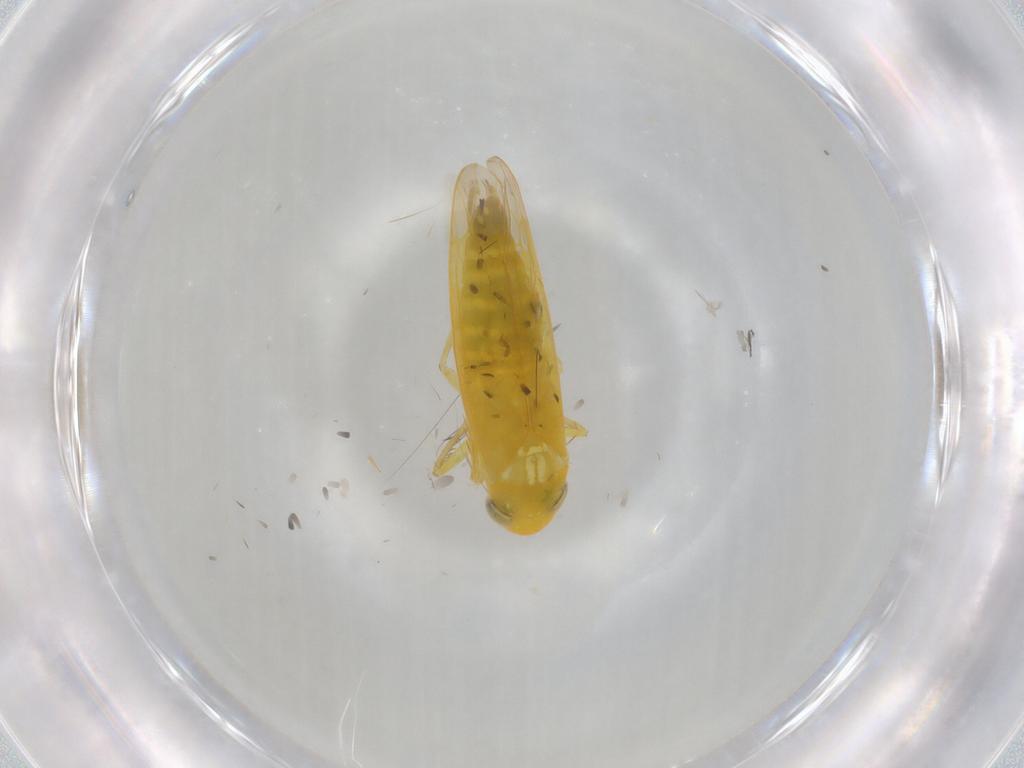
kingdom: Animalia
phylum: Arthropoda
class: Insecta
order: Hemiptera
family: Cicadellidae
